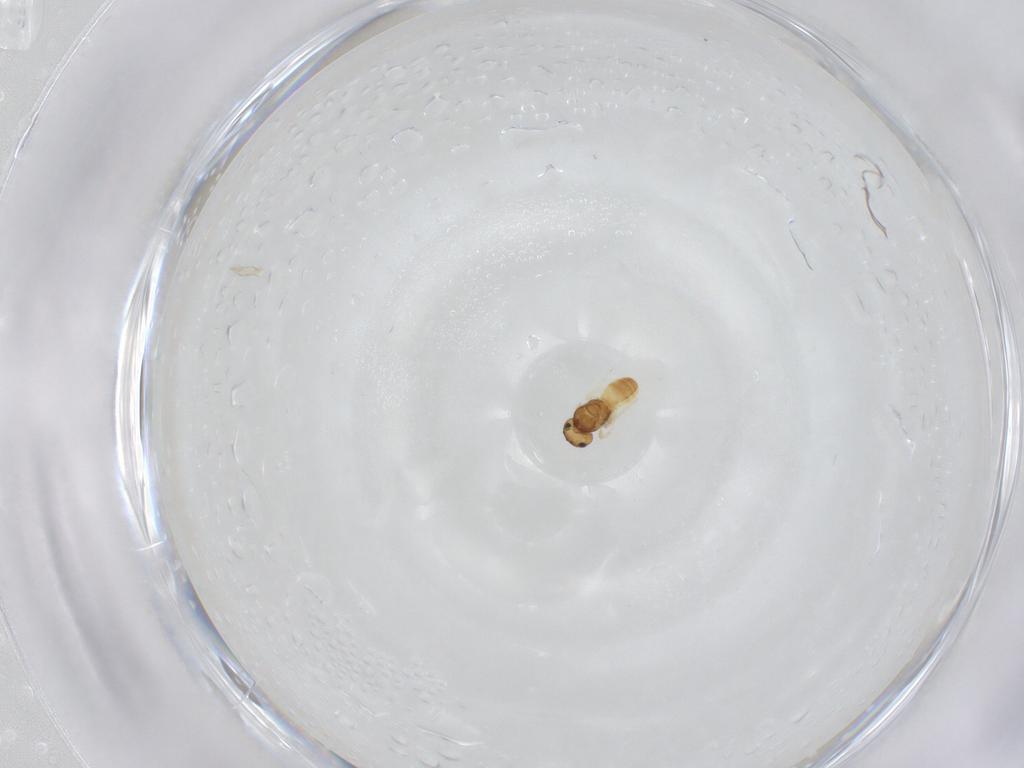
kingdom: Animalia
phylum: Arthropoda
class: Insecta
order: Hymenoptera
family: Scelionidae
